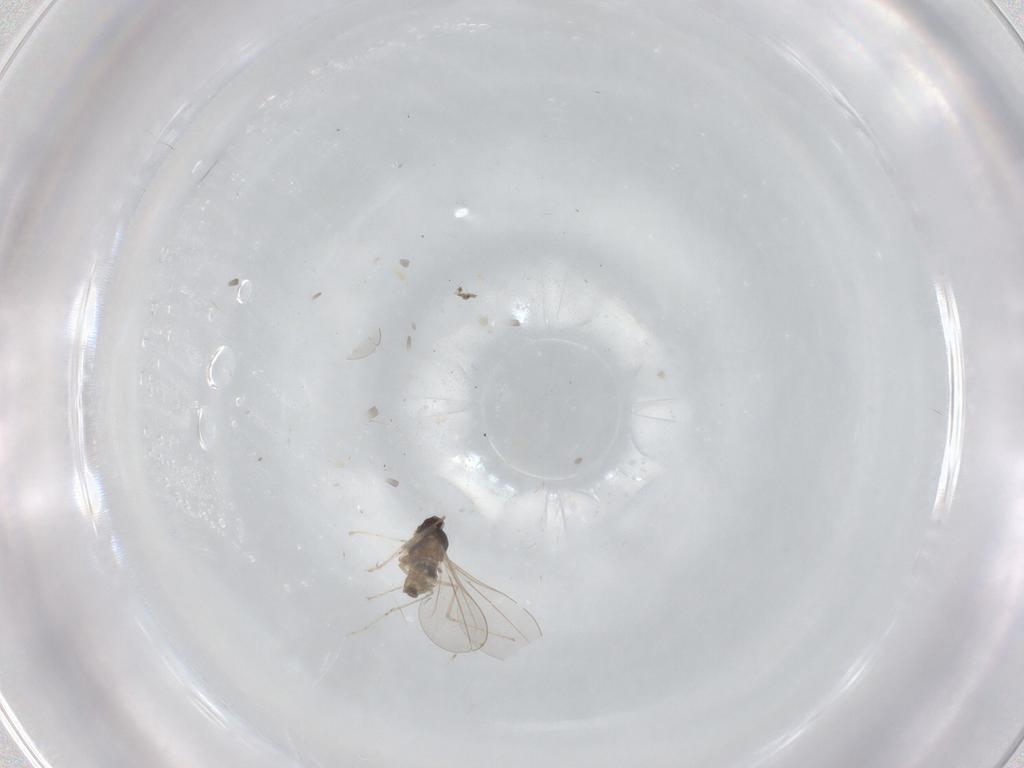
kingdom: Animalia
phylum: Arthropoda
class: Insecta
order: Diptera
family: Cecidomyiidae
